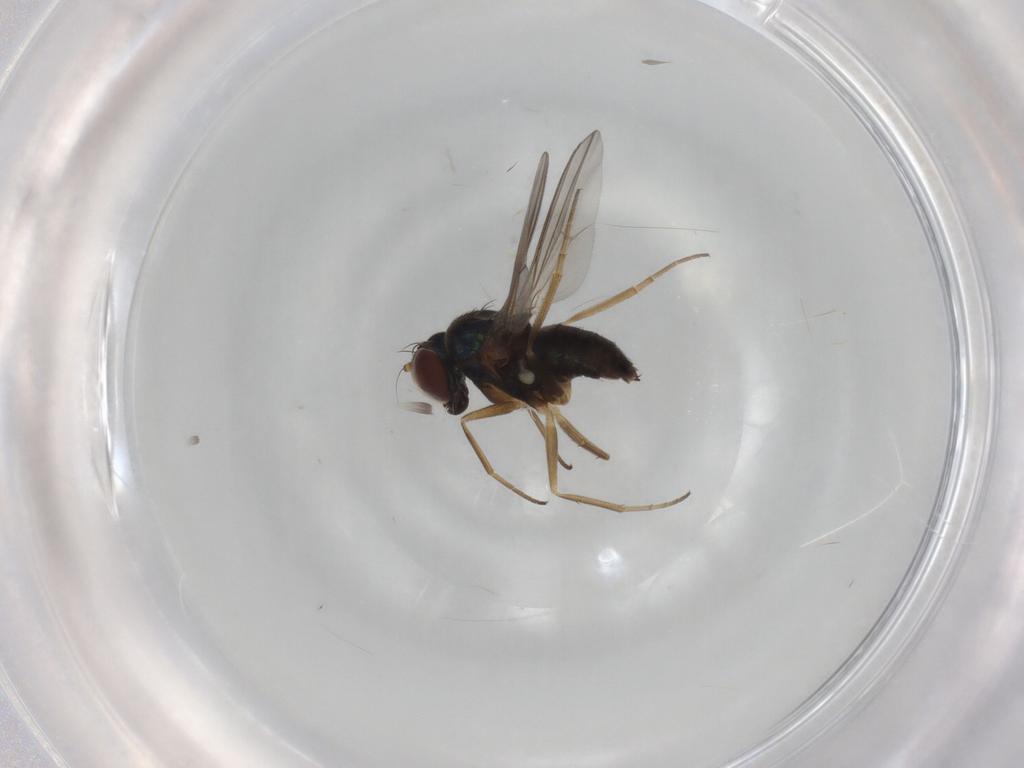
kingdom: Animalia
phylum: Arthropoda
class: Insecta
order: Diptera
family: Dolichopodidae
